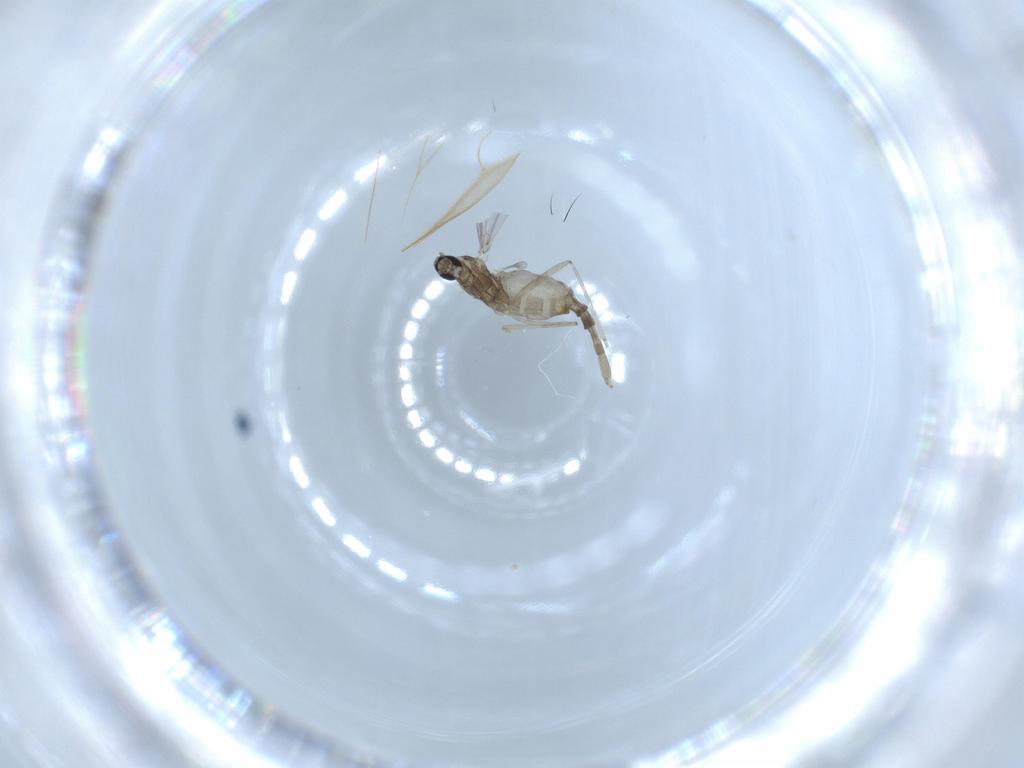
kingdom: Animalia
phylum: Arthropoda
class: Insecta
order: Diptera
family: Cecidomyiidae
